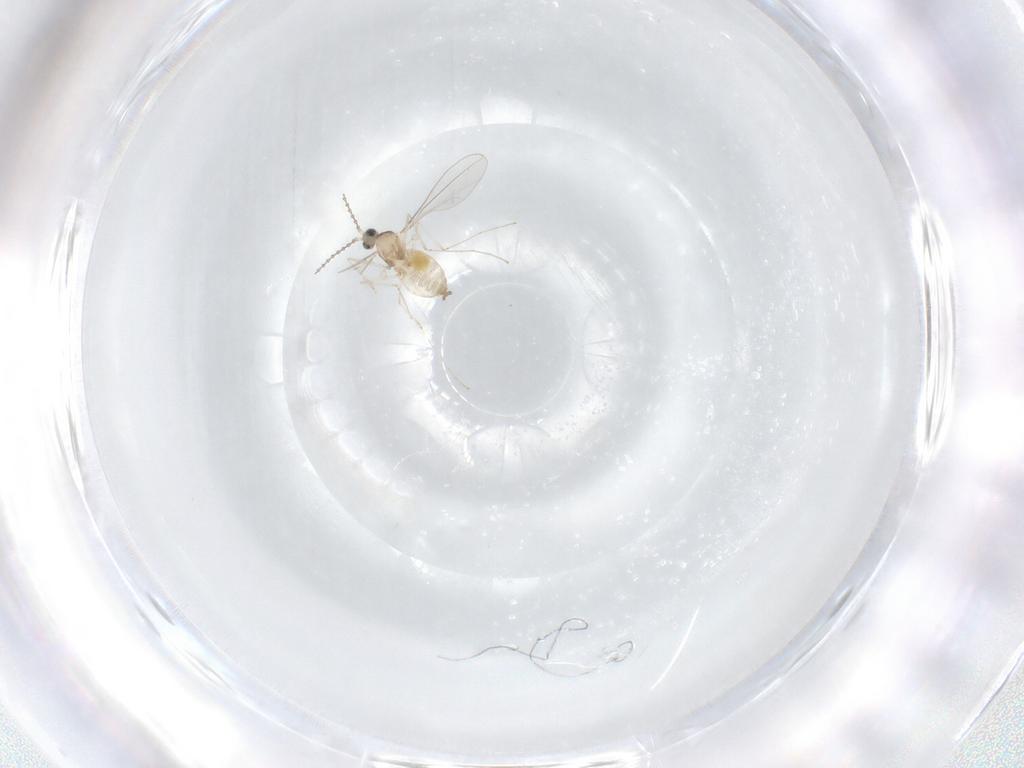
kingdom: Animalia
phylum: Arthropoda
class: Insecta
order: Diptera
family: Cecidomyiidae
